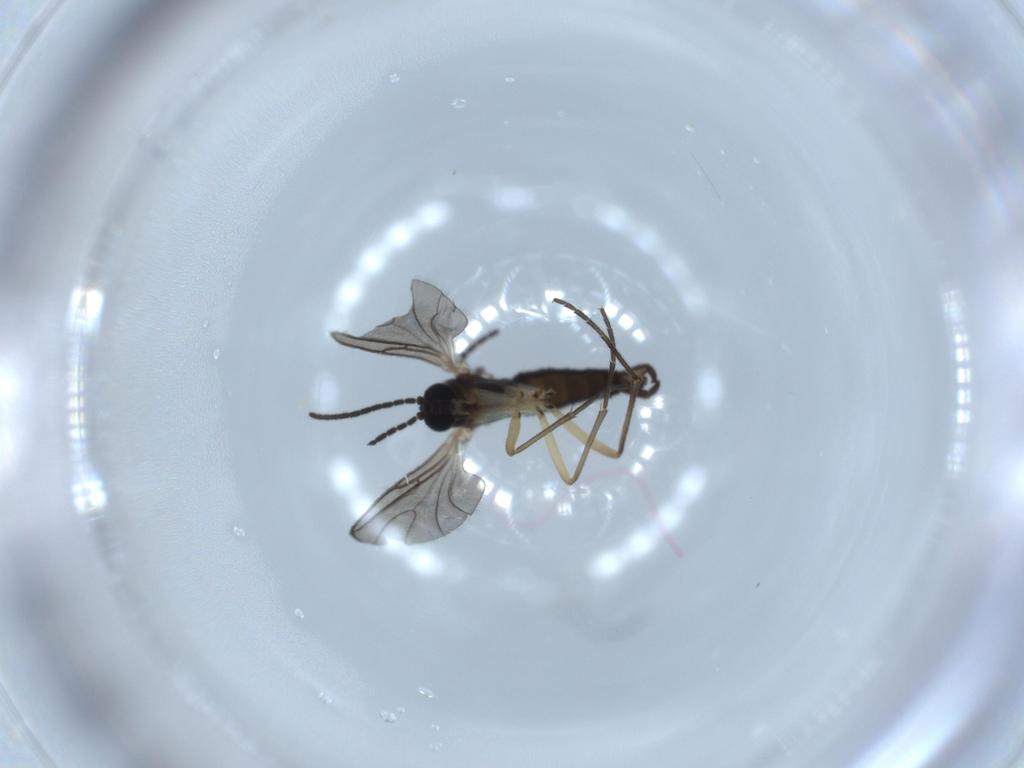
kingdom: Animalia
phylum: Arthropoda
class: Insecta
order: Diptera
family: Sciaridae
